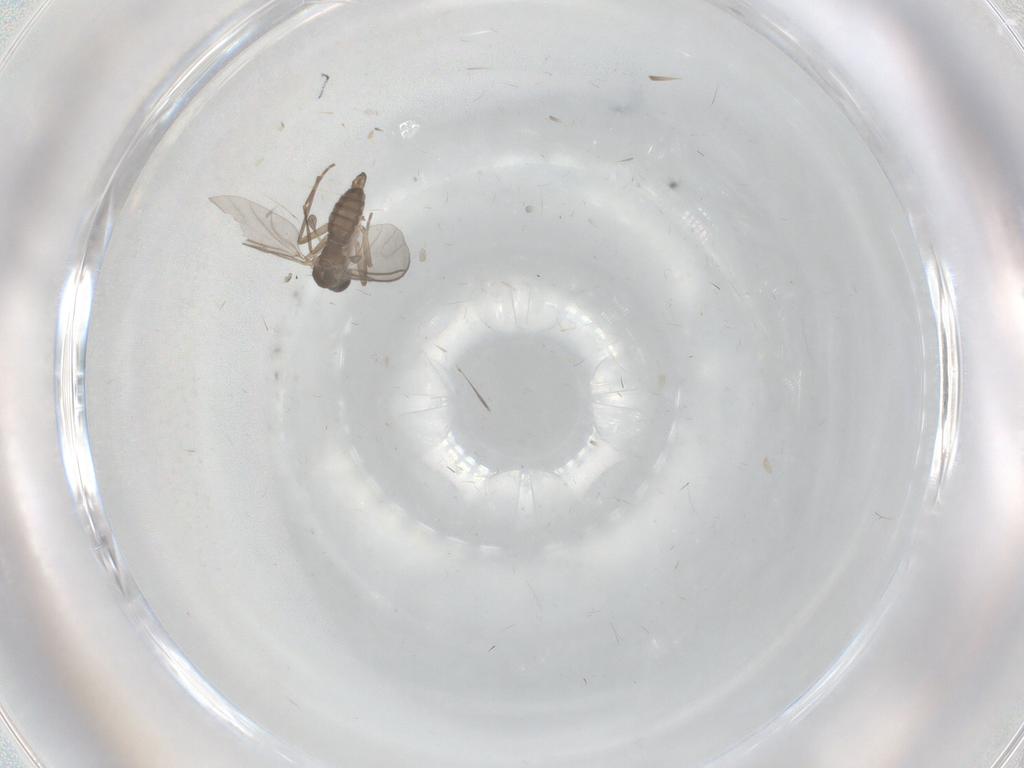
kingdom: Animalia
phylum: Arthropoda
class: Insecta
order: Diptera
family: Sciaridae
